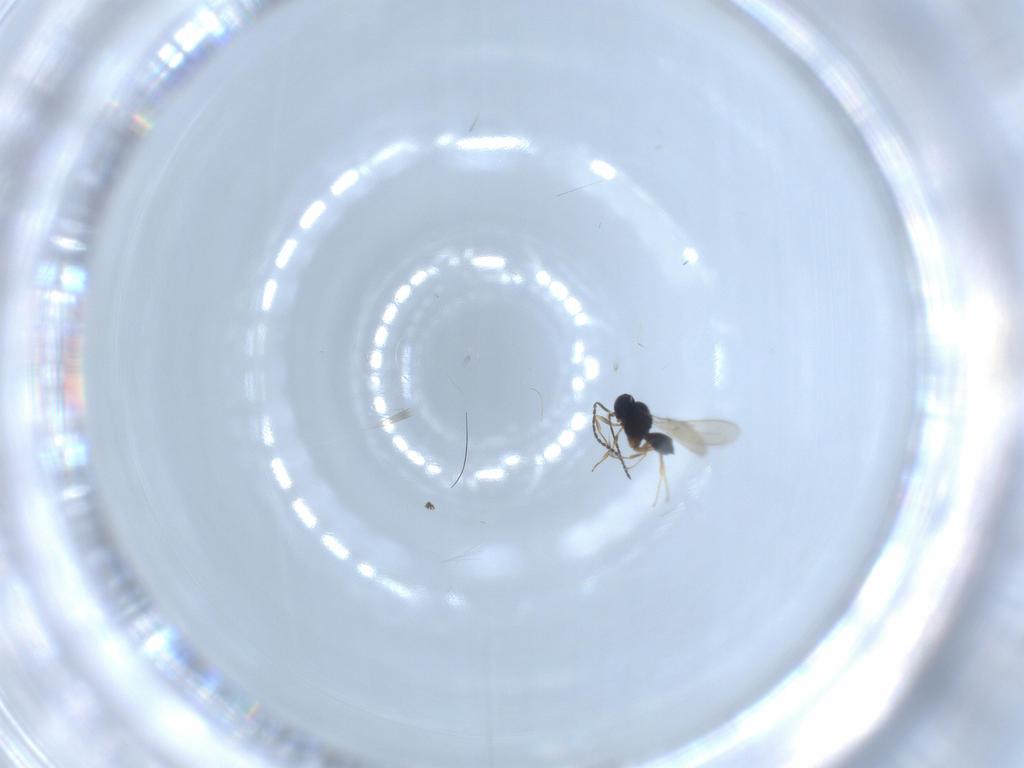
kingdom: Animalia
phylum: Arthropoda
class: Insecta
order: Hymenoptera
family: Scelionidae
